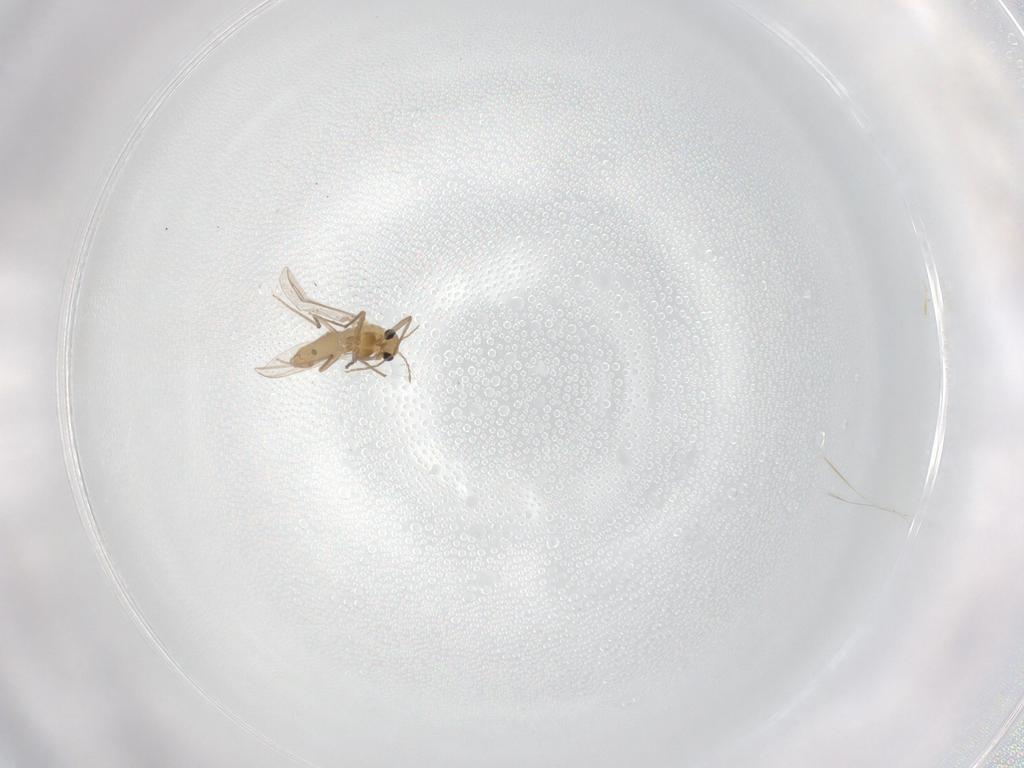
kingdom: Animalia
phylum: Arthropoda
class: Insecta
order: Diptera
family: Chironomidae
